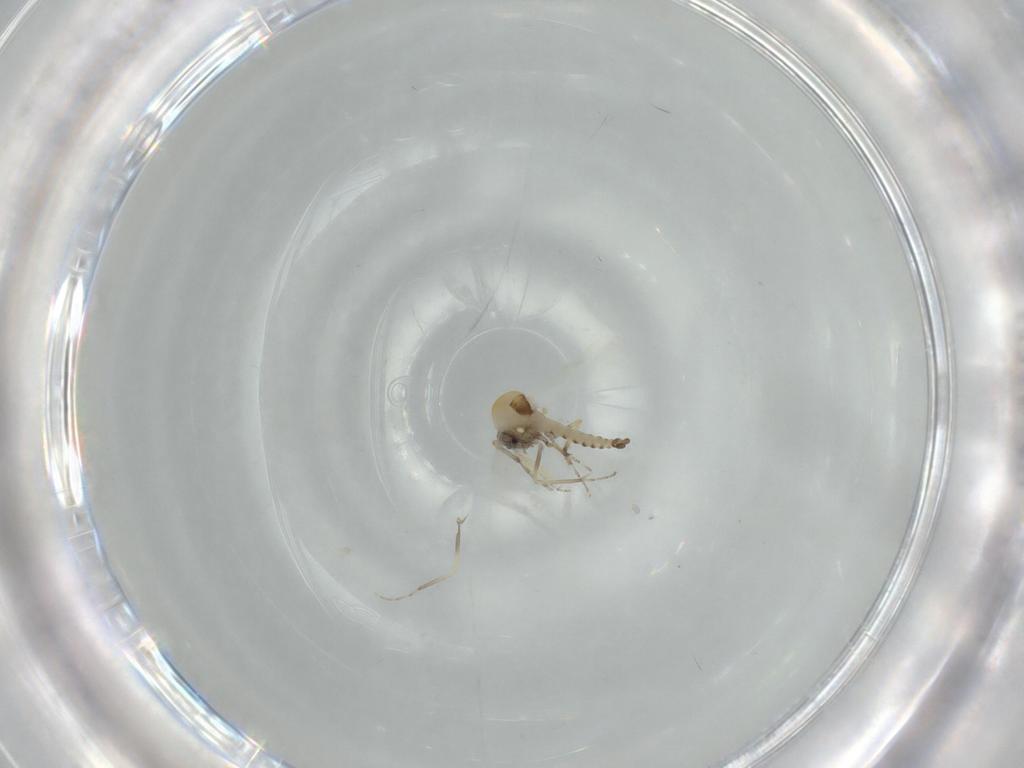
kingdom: Animalia
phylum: Arthropoda
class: Insecta
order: Diptera
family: Ceratopogonidae
